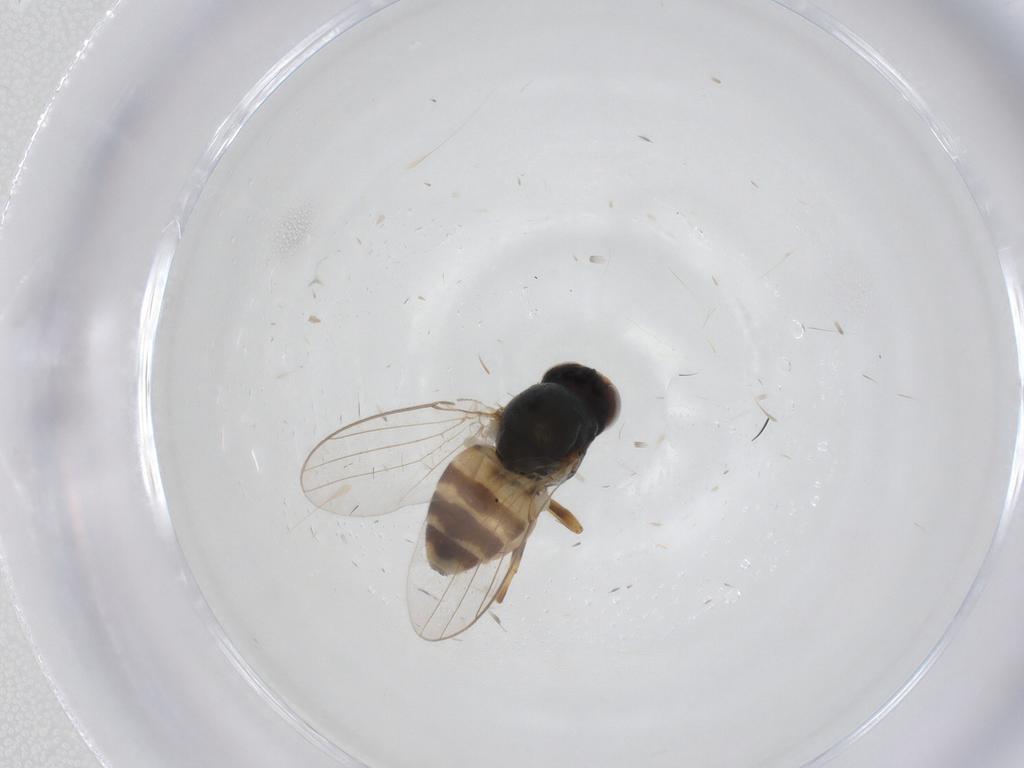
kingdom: Animalia
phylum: Arthropoda
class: Insecta
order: Diptera
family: Chloropidae
